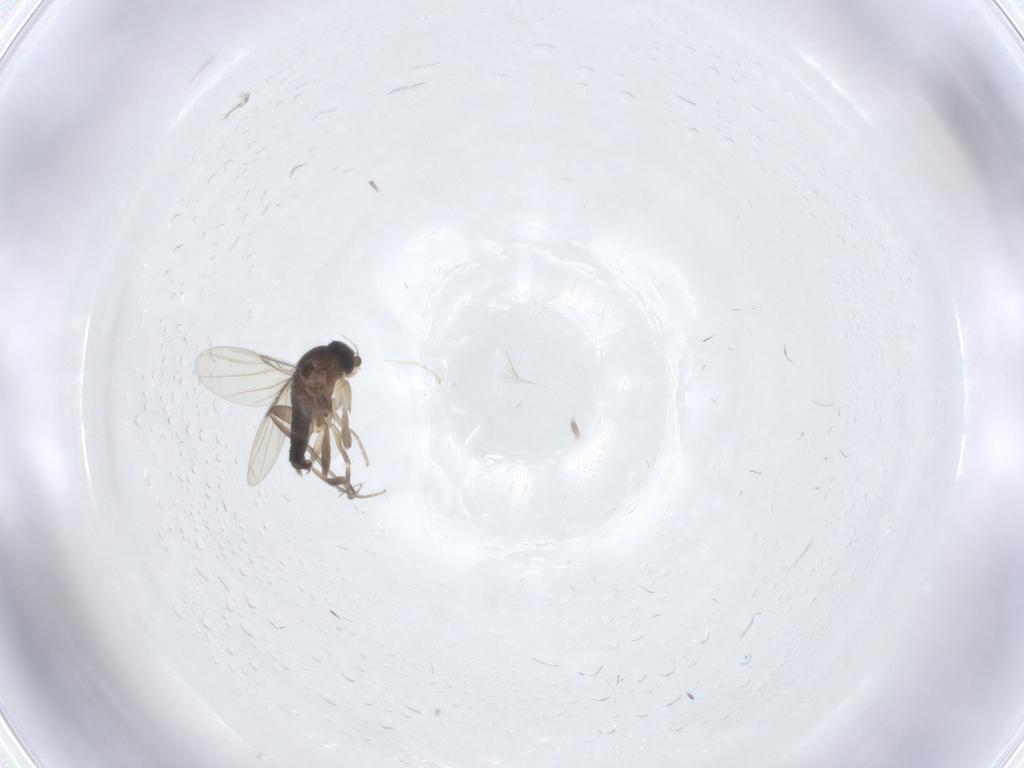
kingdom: Animalia
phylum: Arthropoda
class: Insecta
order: Diptera
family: Phoridae
